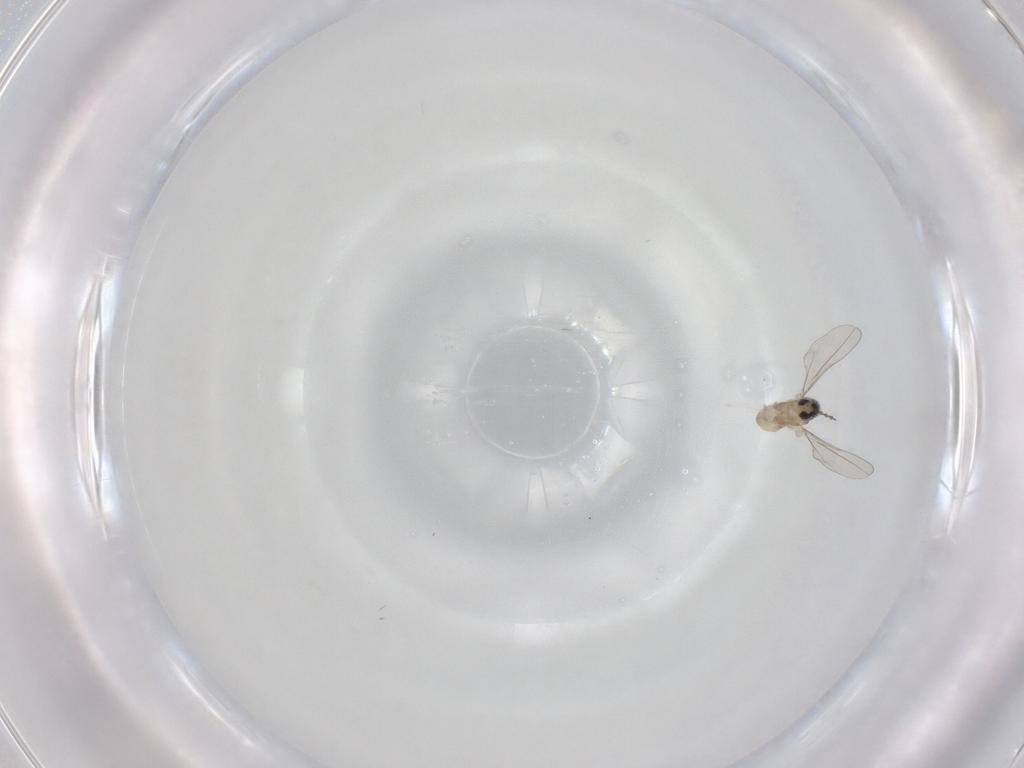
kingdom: Animalia
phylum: Arthropoda
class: Insecta
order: Diptera
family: Cecidomyiidae
